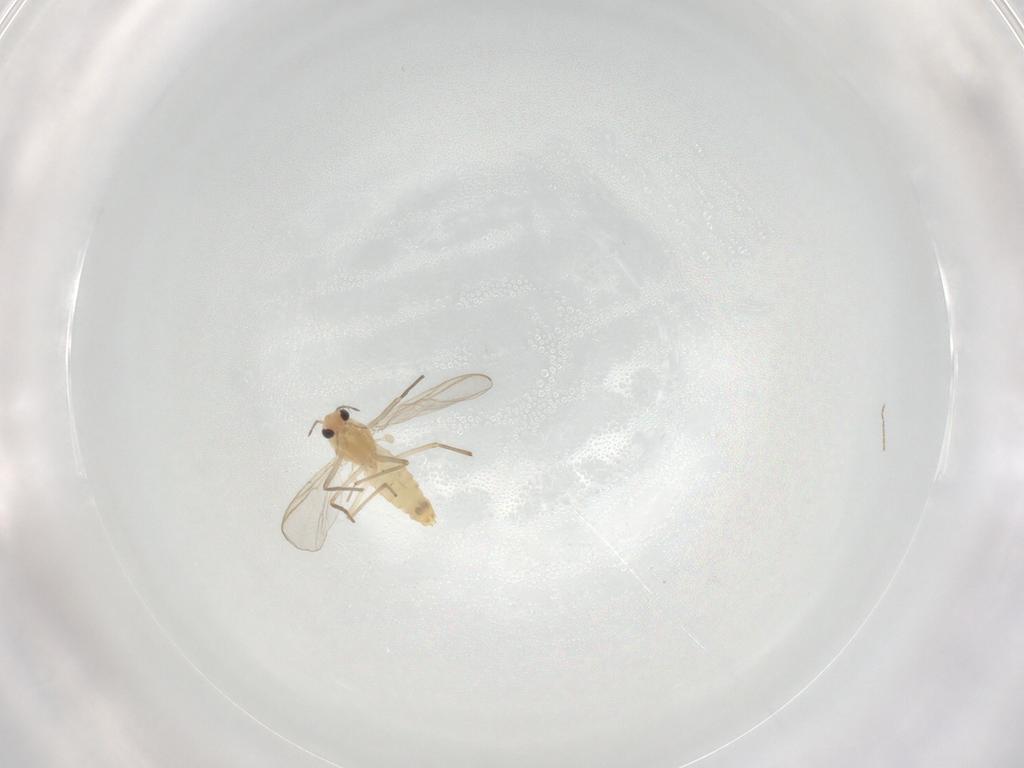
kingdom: Animalia
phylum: Arthropoda
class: Insecta
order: Diptera
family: Chironomidae
